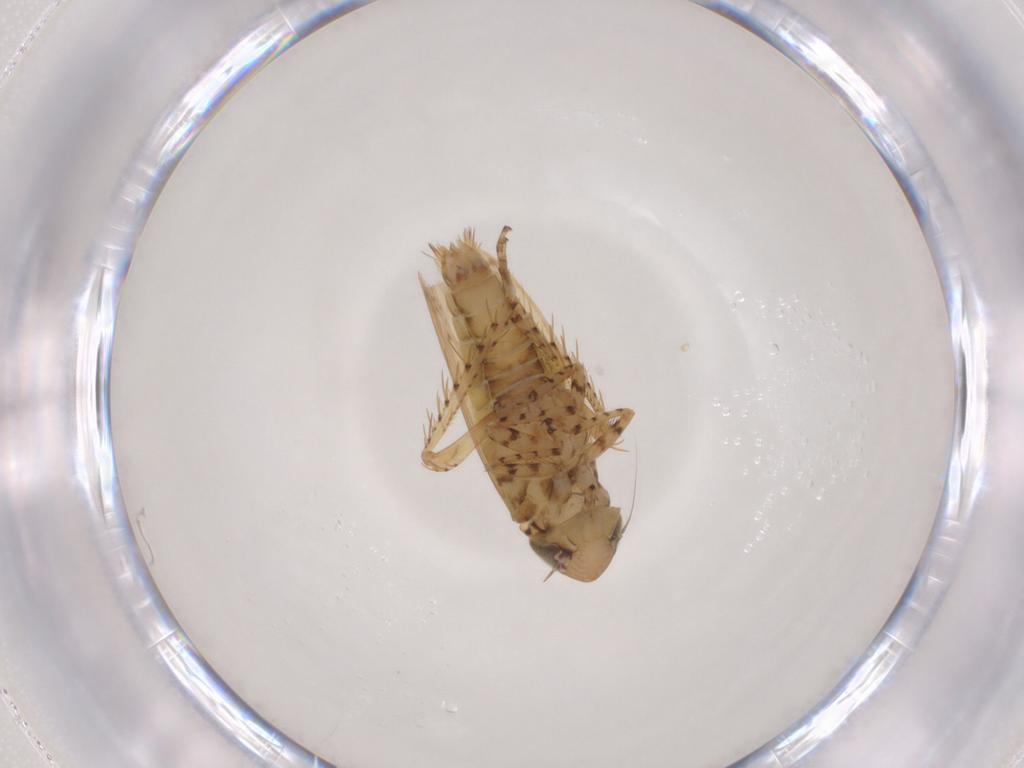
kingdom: Animalia
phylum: Arthropoda
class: Insecta
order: Hemiptera
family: Cicadellidae
